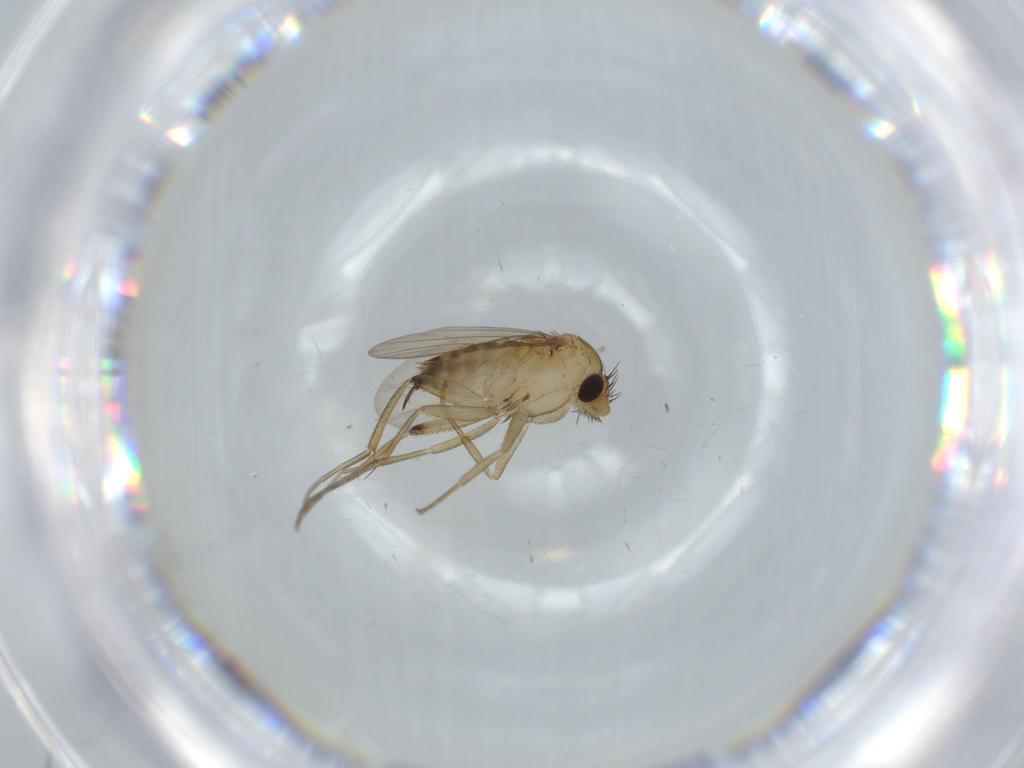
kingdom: Animalia
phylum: Arthropoda
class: Insecta
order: Diptera
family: Phoridae
